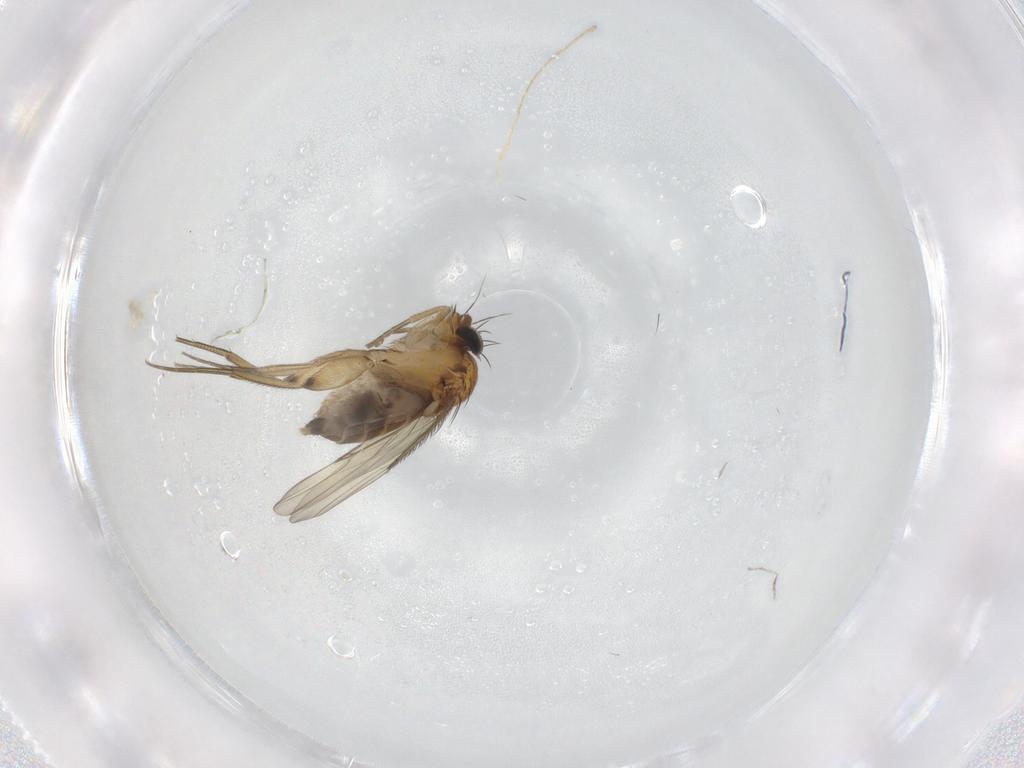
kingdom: Animalia
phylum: Arthropoda
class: Insecta
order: Diptera
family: Phoridae
